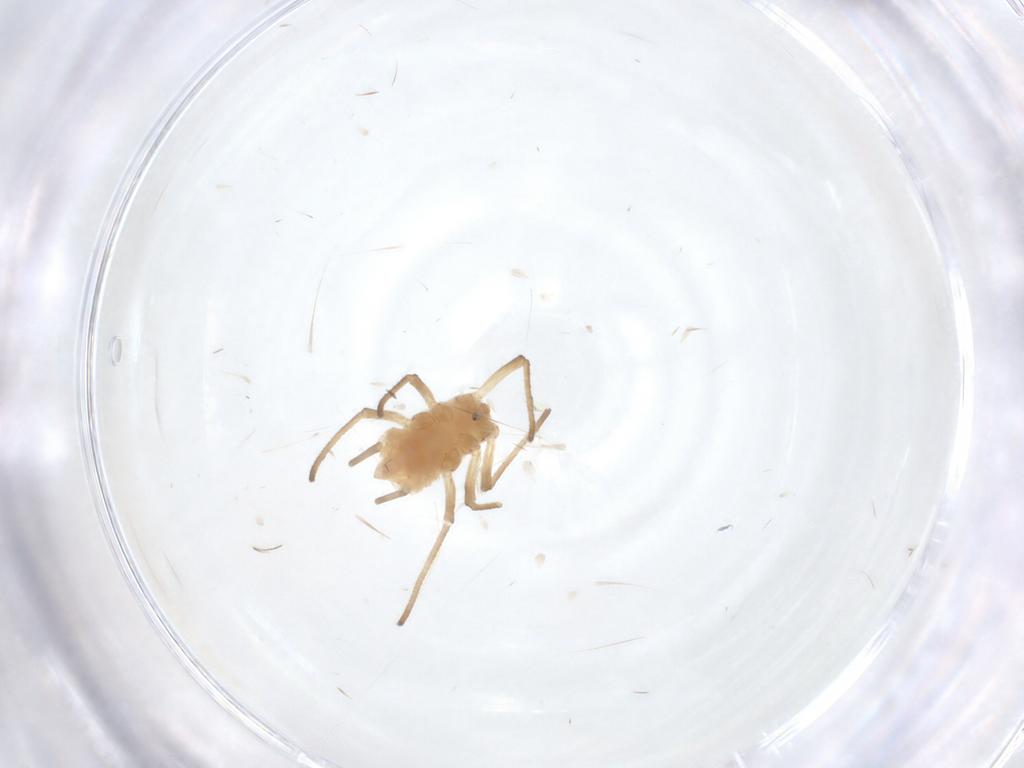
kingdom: Animalia
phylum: Arthropoda
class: Insecta
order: Hemiptera
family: Aphididae
